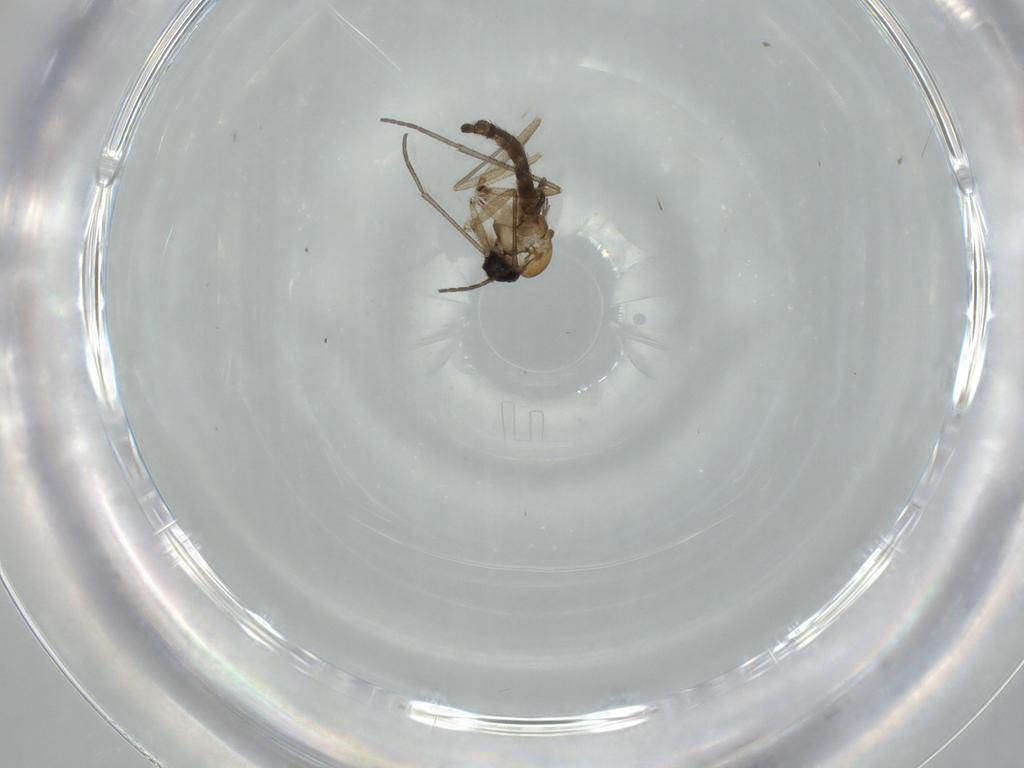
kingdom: Animalia
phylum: Arthropoda
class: Insecta
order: Diptera
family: Sciaridae
